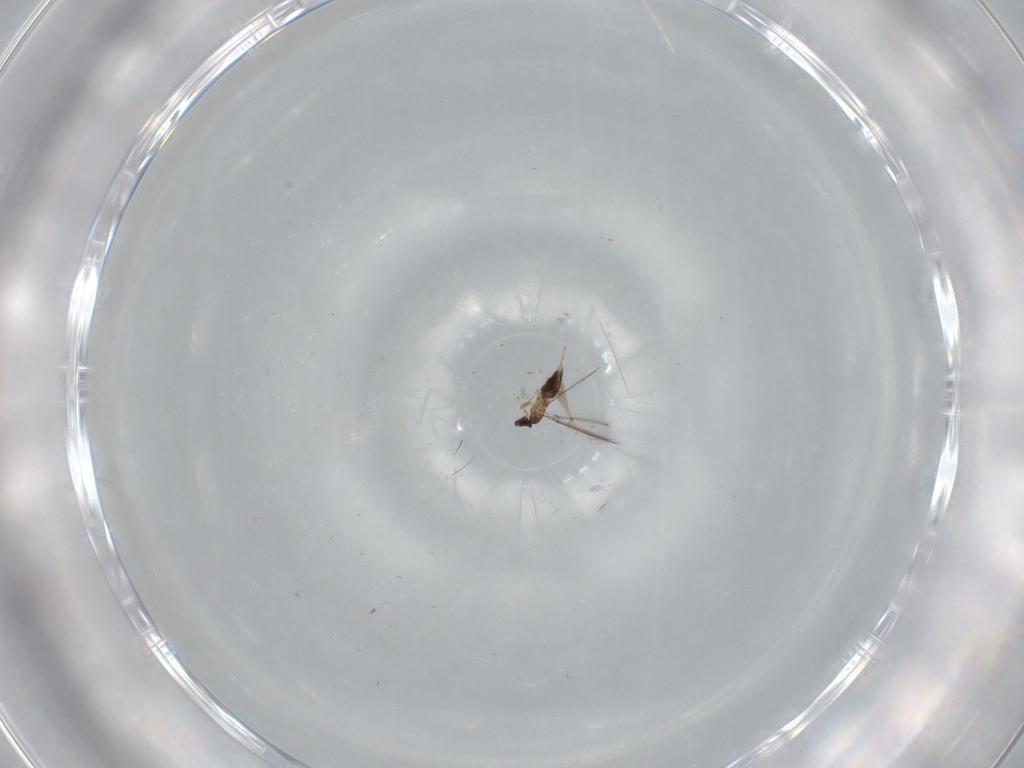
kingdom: Animalia
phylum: Arthropoda
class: Insecta
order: Hymenoptera
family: Mymaridae
